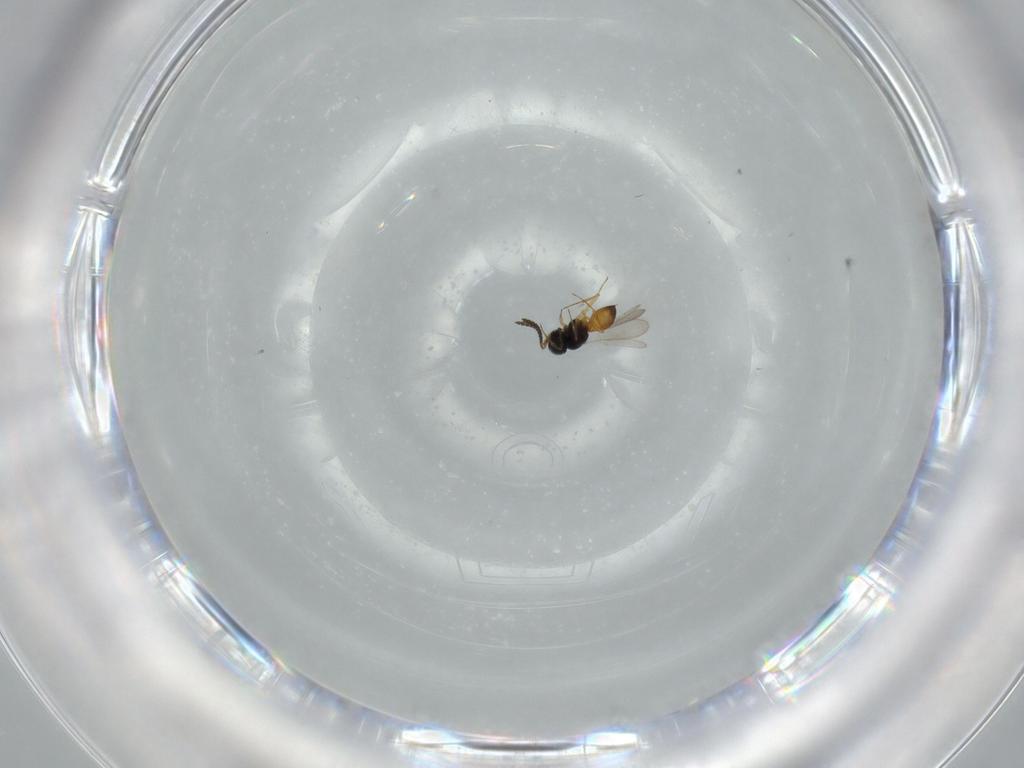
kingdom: Animalia
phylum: Arthropoda
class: Insecta
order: Hymenoptera
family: Scelionidae
